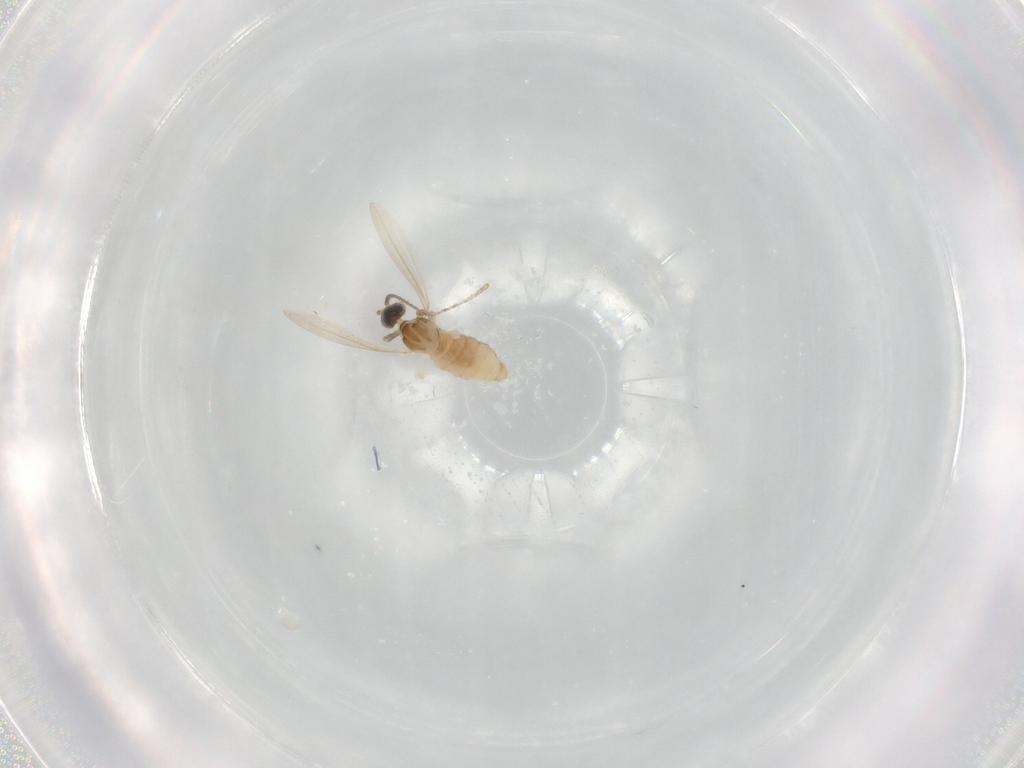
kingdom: Animalia
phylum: Arthropoda
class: Insecta
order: Diptera
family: Cecidomyiidae
